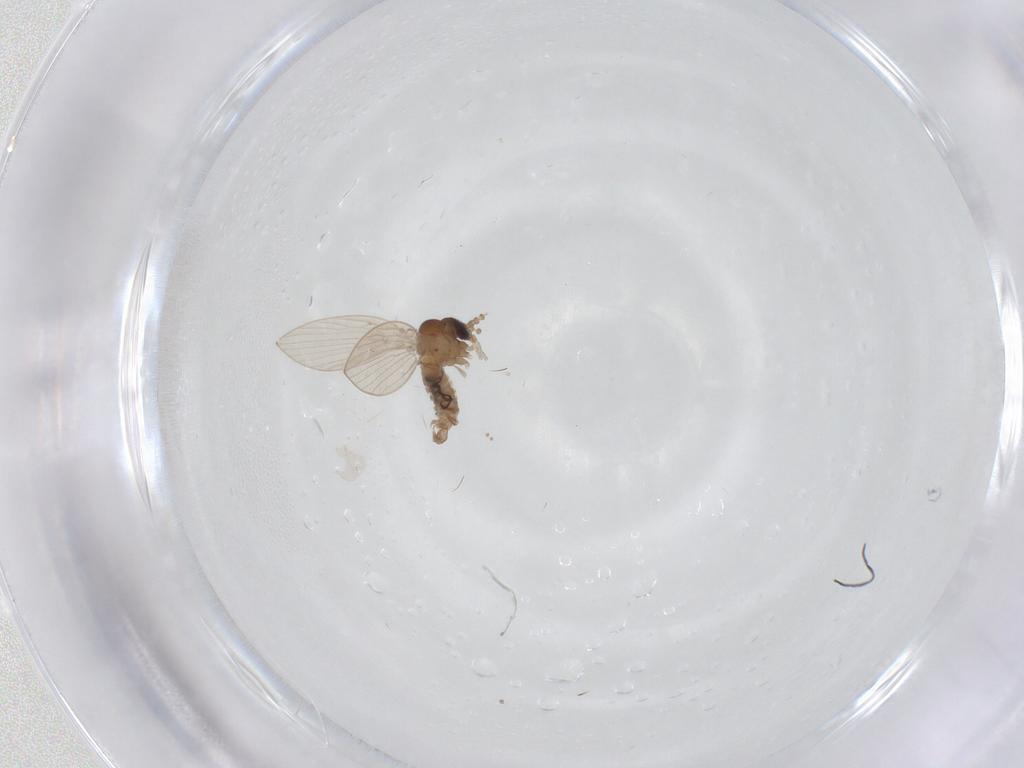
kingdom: Animalia
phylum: Arthropoda
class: Insecta
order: Diptera
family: Psychodidae
